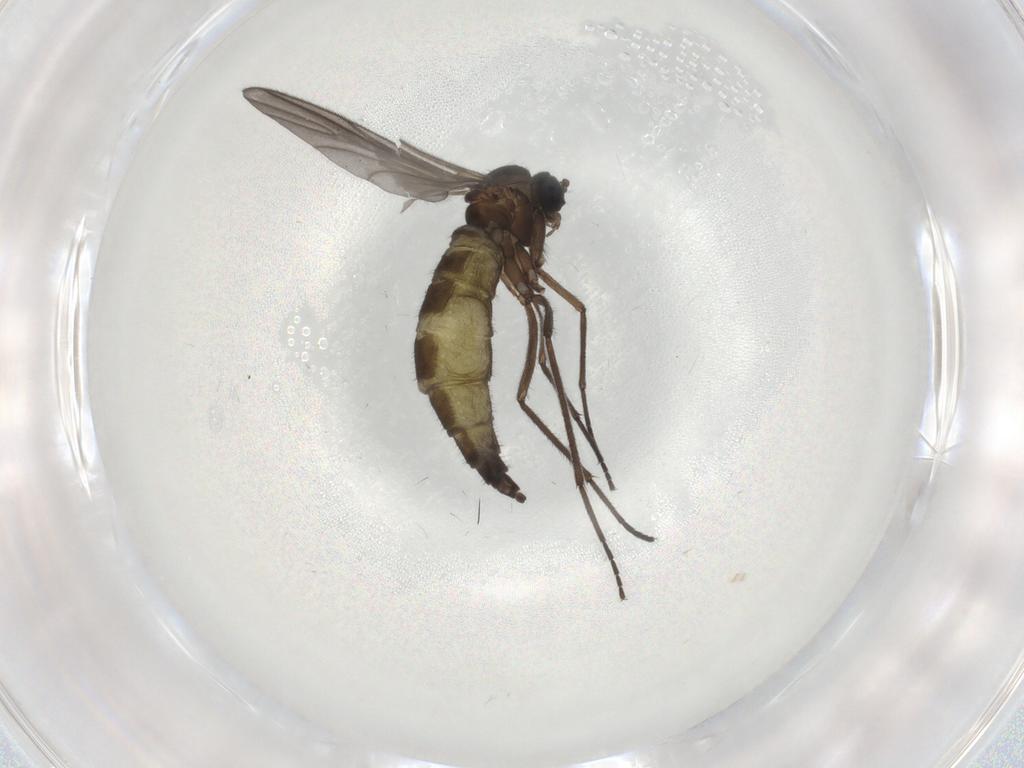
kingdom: Animalia
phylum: Arthropoda
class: Insecta
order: Diptera
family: Sciaridae
